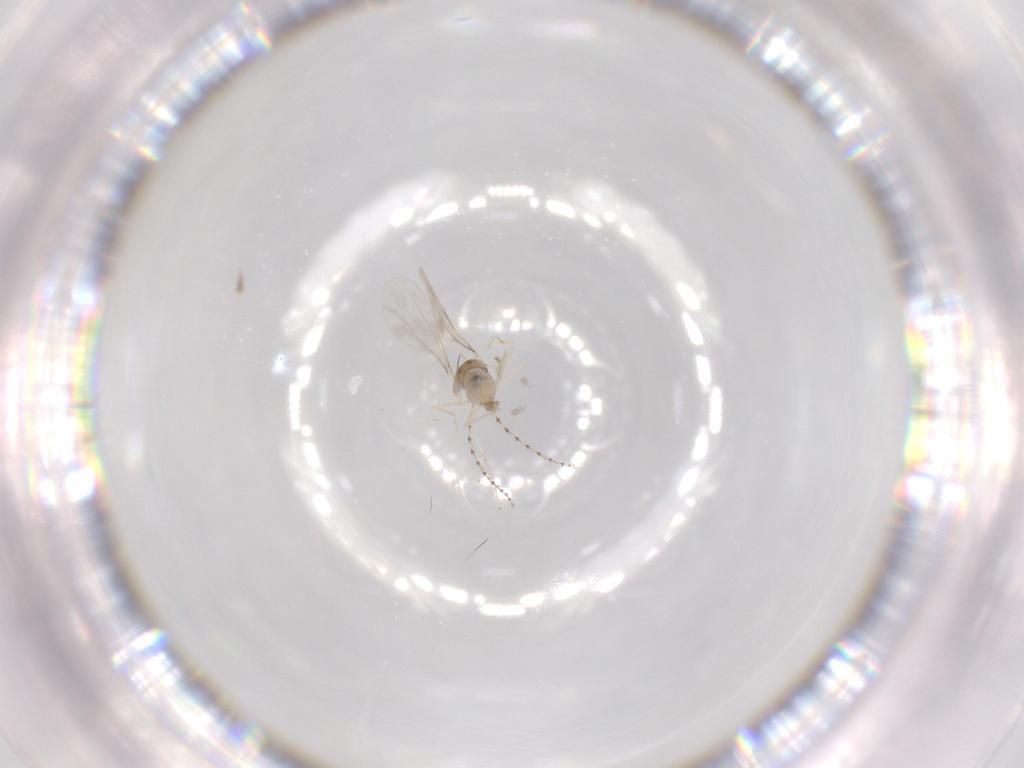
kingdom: Animalia
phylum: Arthropoda
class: Insecta
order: Diptera
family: Cecidomyiidae
